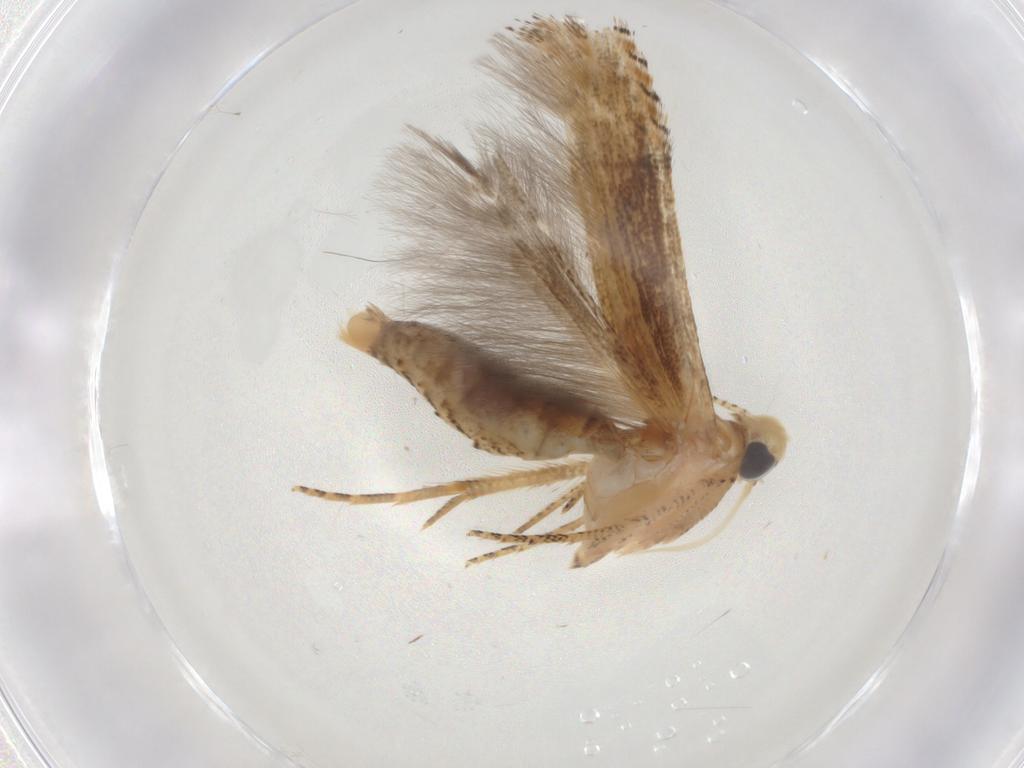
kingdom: Animalia
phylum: Arthropoda
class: Insecta
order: Lepidoptera
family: Gelechiidae
